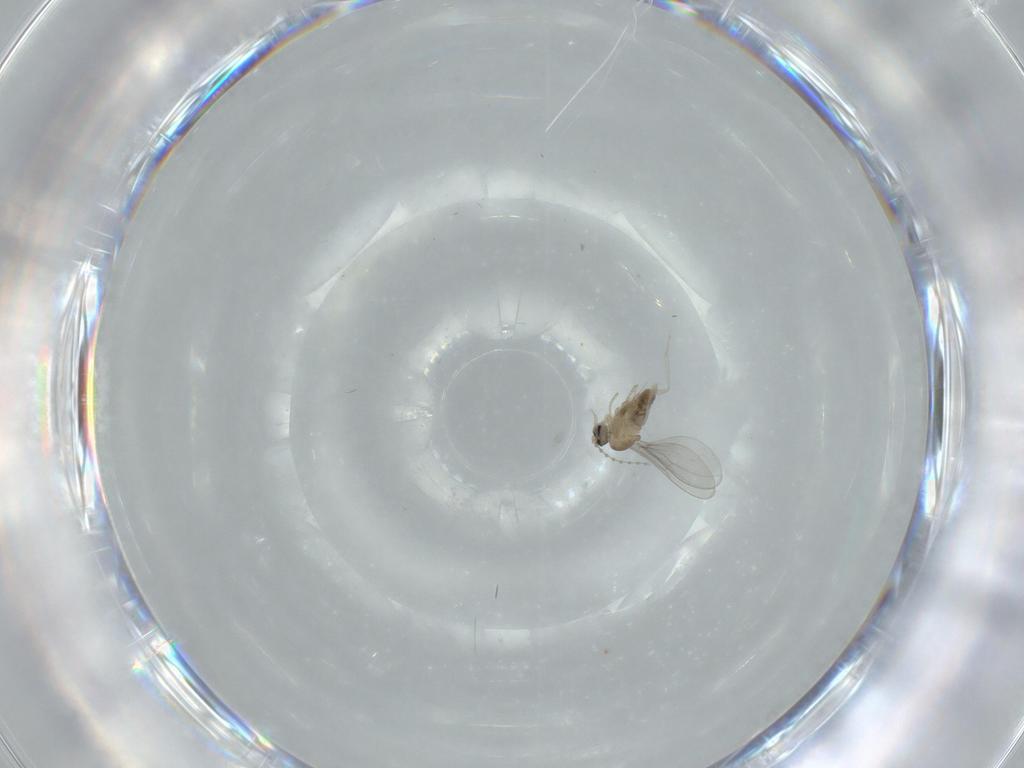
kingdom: Animalia
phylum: Arthropoda
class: Insecta
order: Diptera
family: Cecidomyiidae
